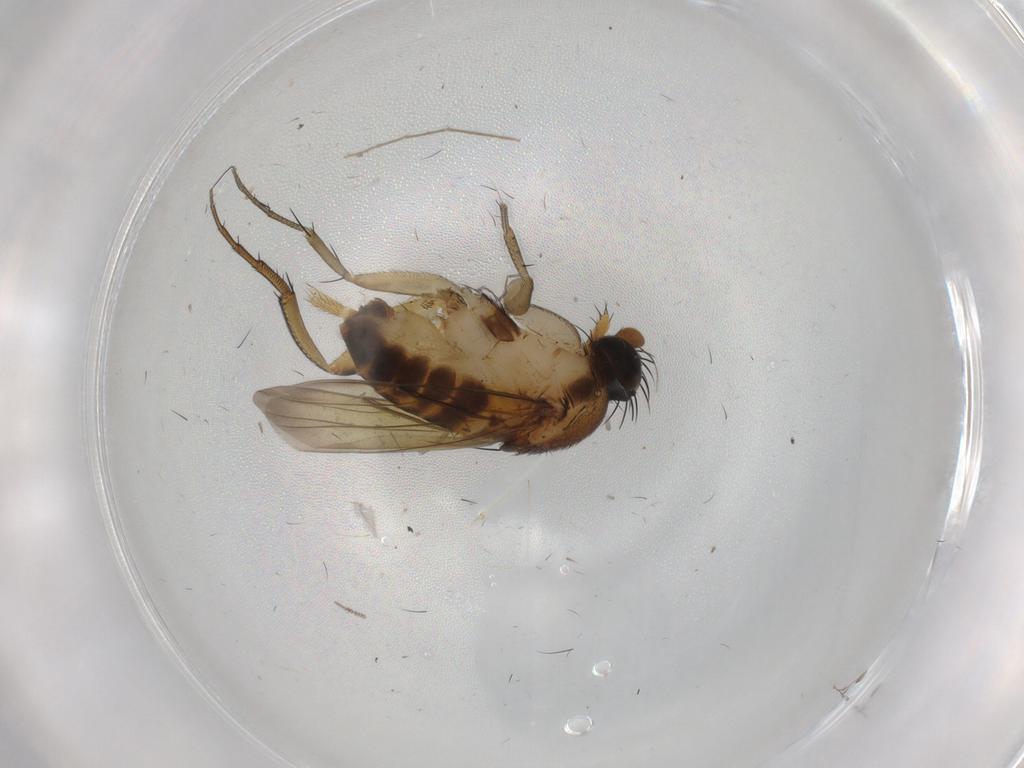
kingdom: Animalia
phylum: Arthropoda
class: Insecta
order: Diptera
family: Phoridae
